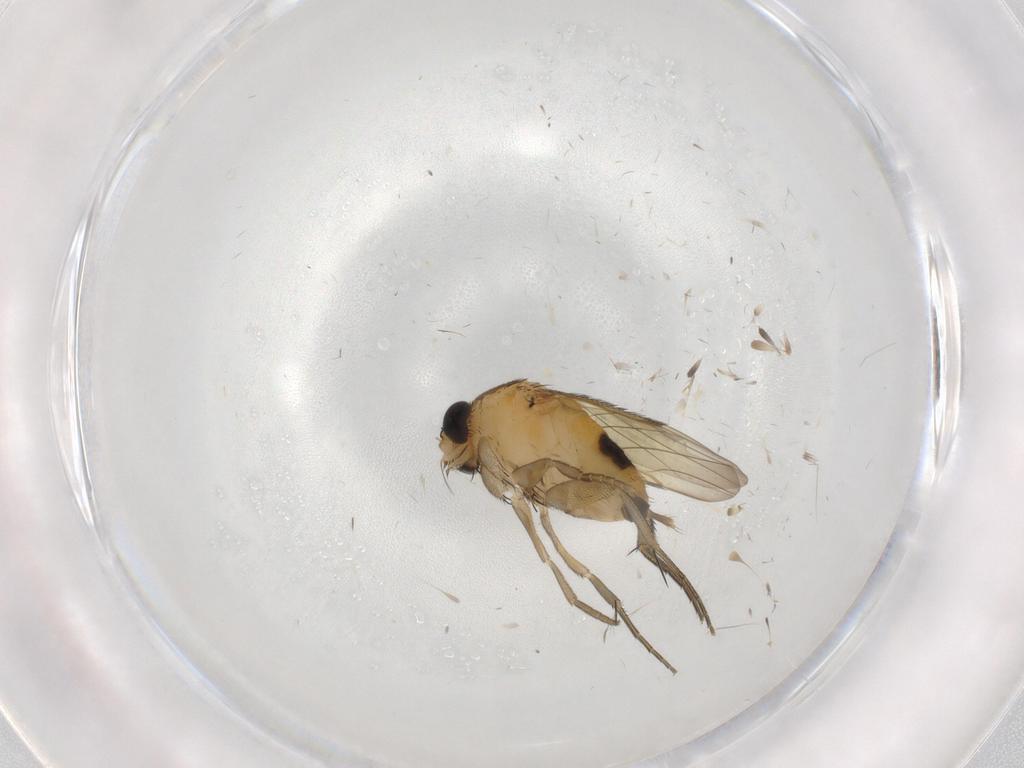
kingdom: Animalia
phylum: Arthropoda
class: Insecta
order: Diptera
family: Phoridae
